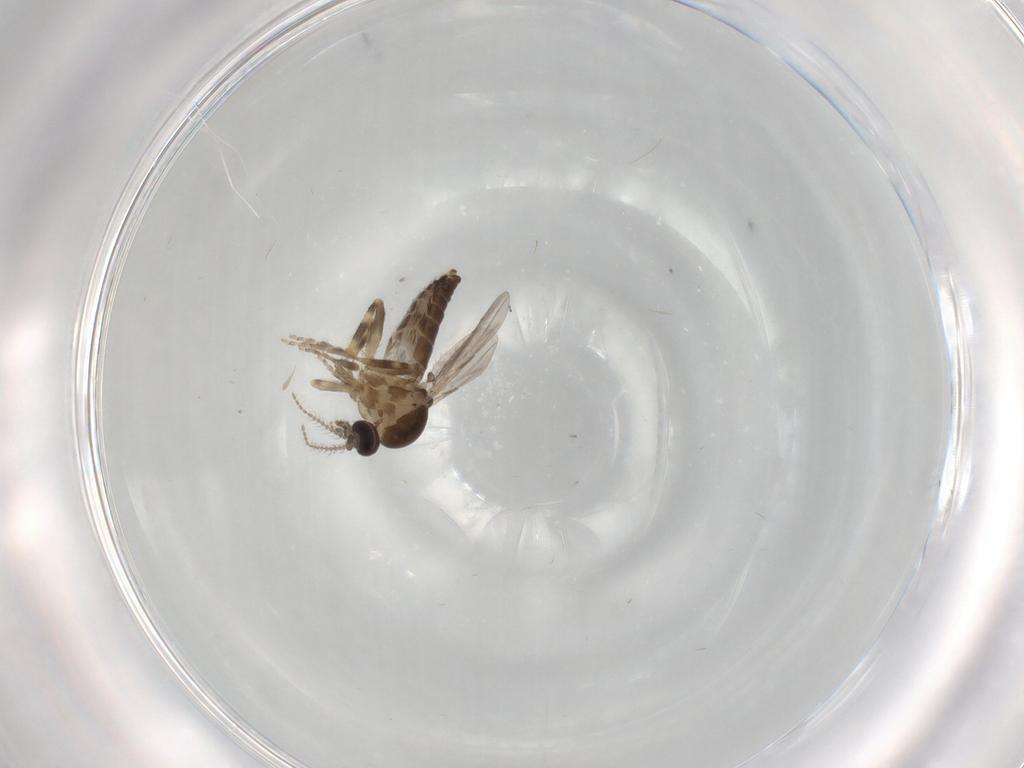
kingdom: Animalia
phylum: Arthropoda
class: Insecta
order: Diptera
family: Ceratopogonidae
